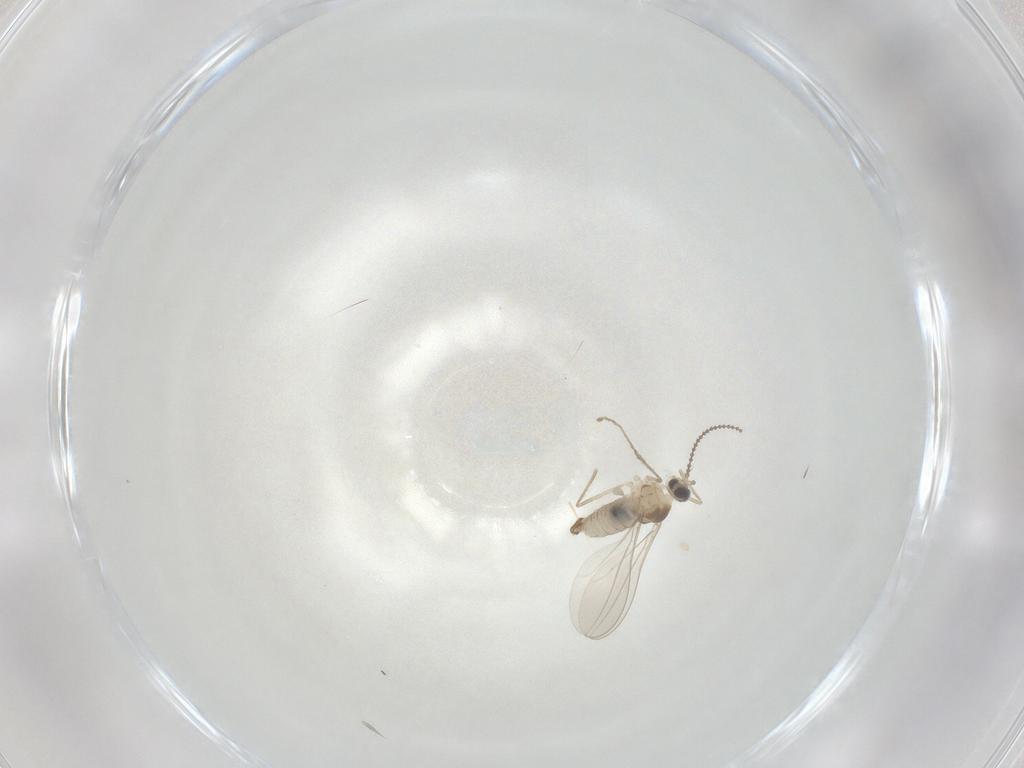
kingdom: Animalia
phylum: Arthropoda
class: Insecta
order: Diptera
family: Cecidomyiidae
